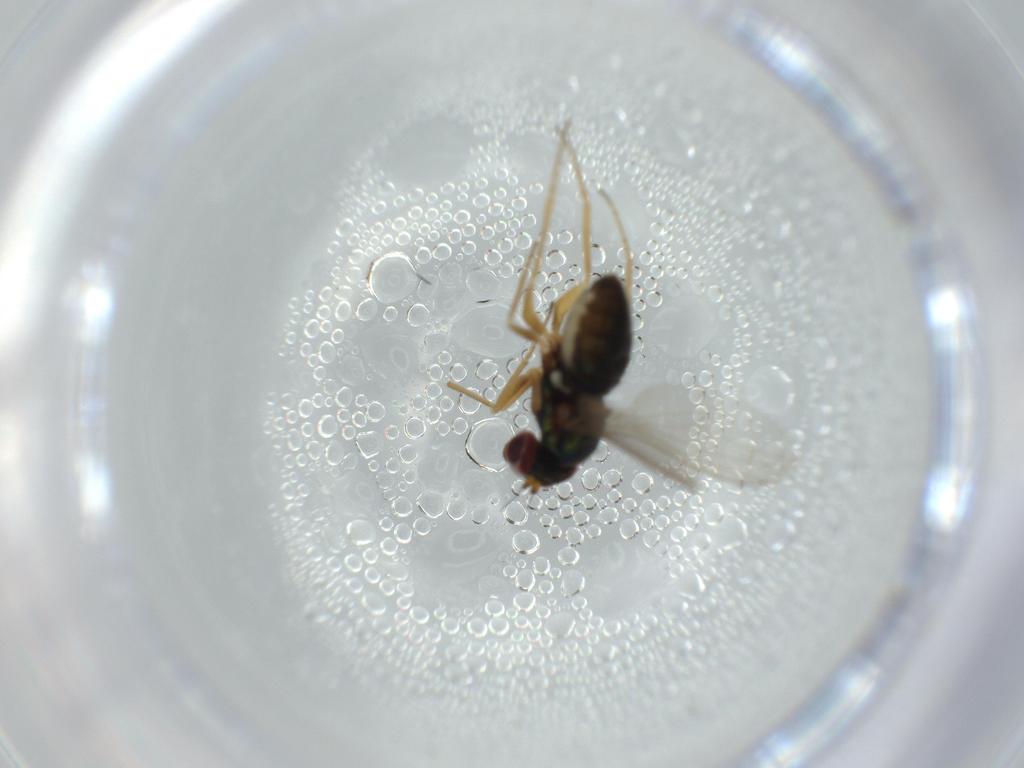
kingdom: Animalia
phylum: Arthropoda
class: Insecta
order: Diptera
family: Dolichopodidae
